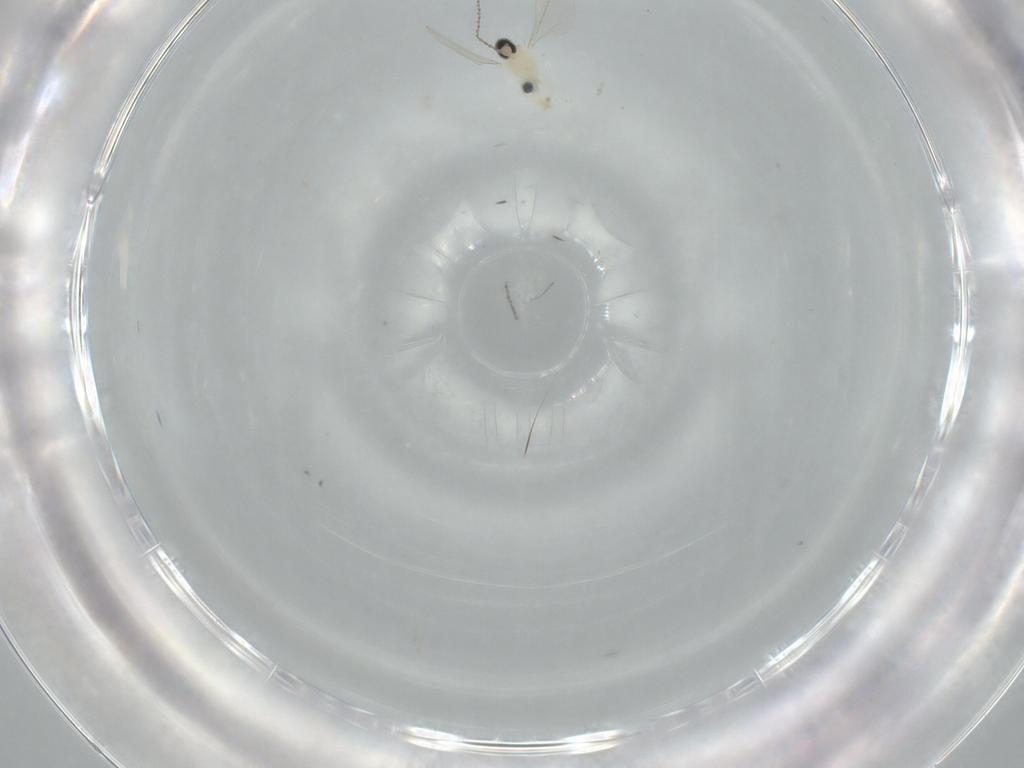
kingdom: Animalia
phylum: Arthropoda
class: Insecta
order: Diptera
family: Cecidomyiidae
